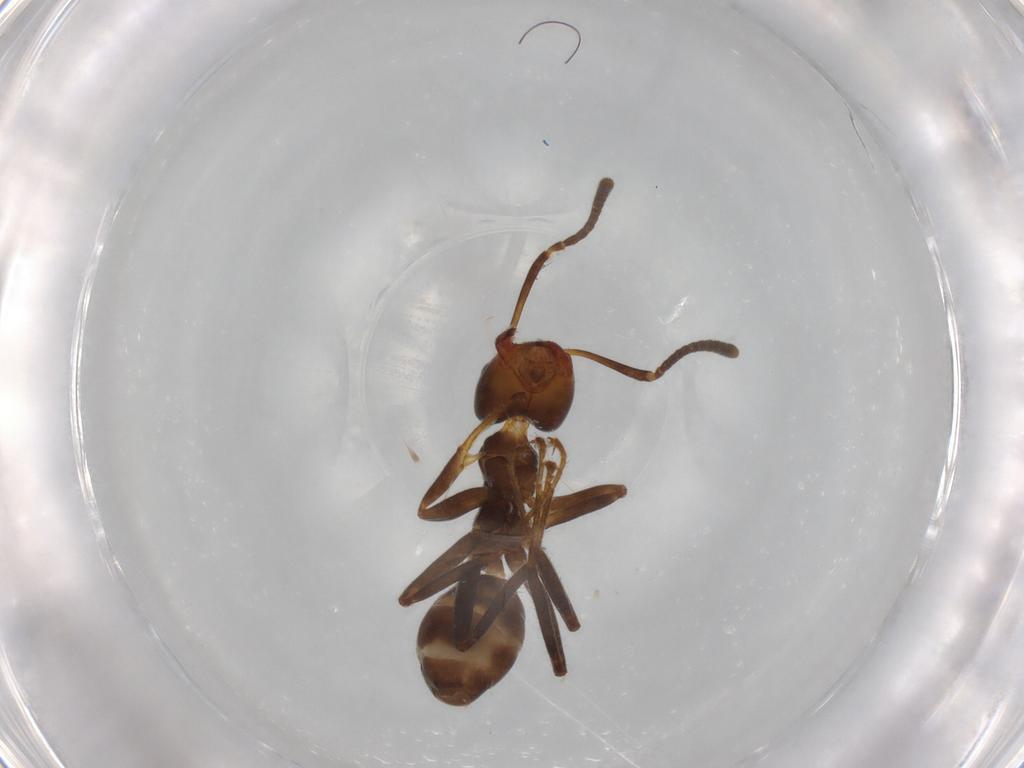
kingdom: Animalia
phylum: Arthropoda
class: Insecta
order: Hymenoptera
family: Formicidae
